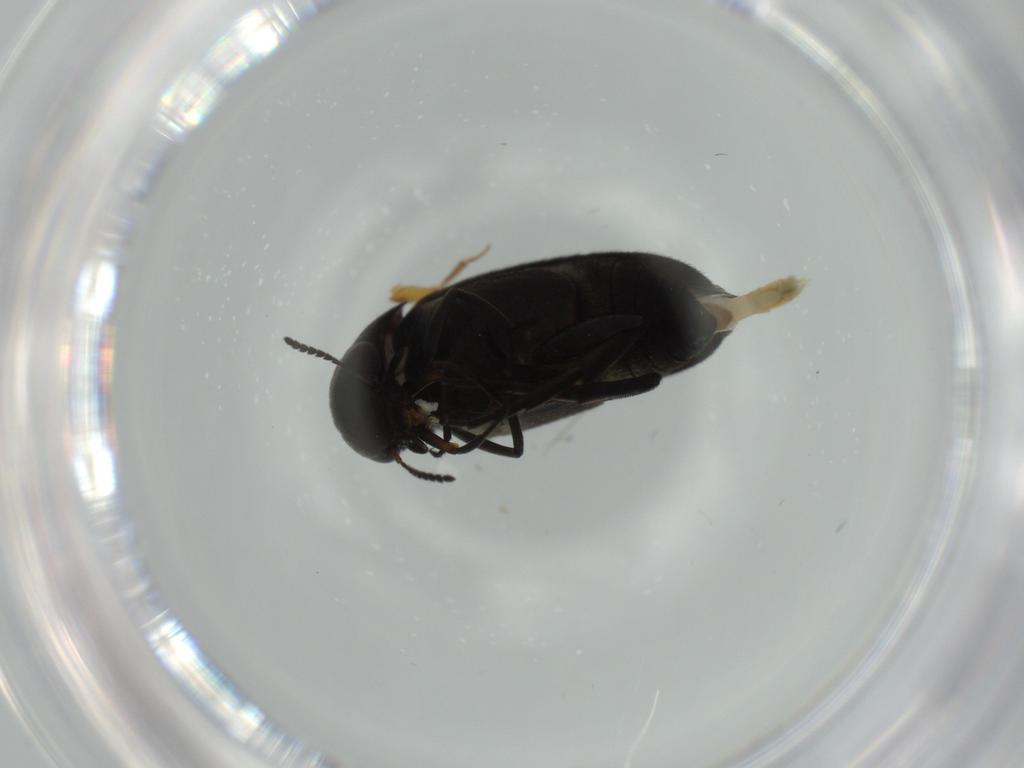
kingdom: Animalia
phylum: Arthropoda
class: Insecta
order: Coleoptera
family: Mordellidae
